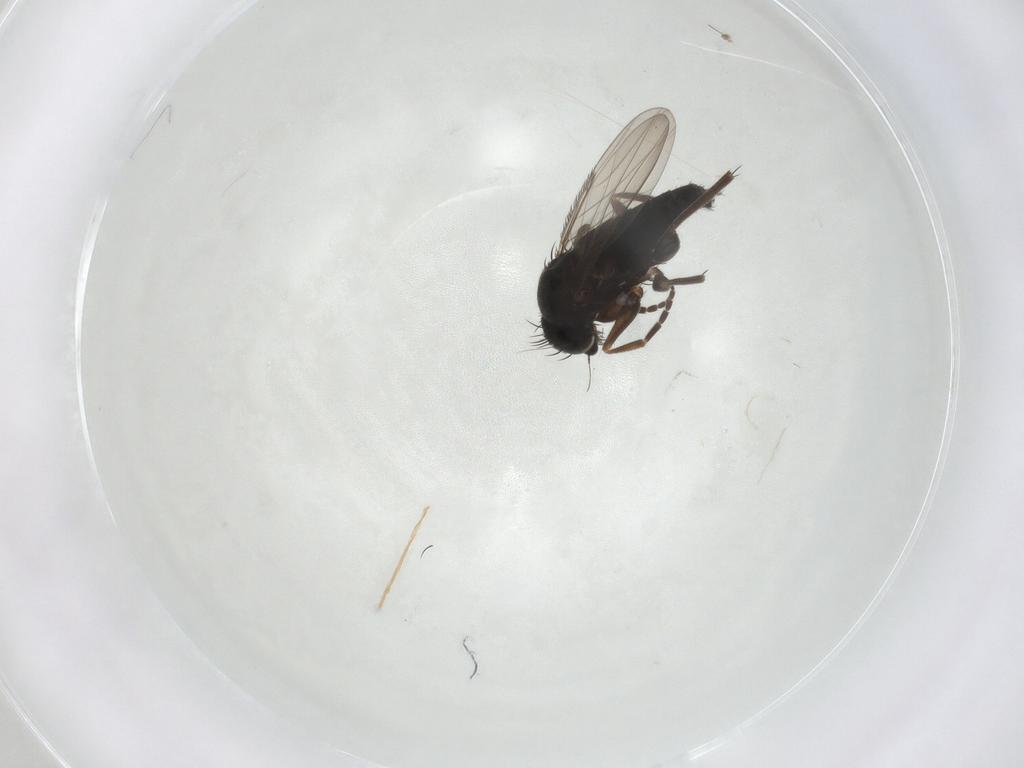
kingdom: Animalia
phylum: Arthropoda
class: Insecta
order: Diptera
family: Phoridae
